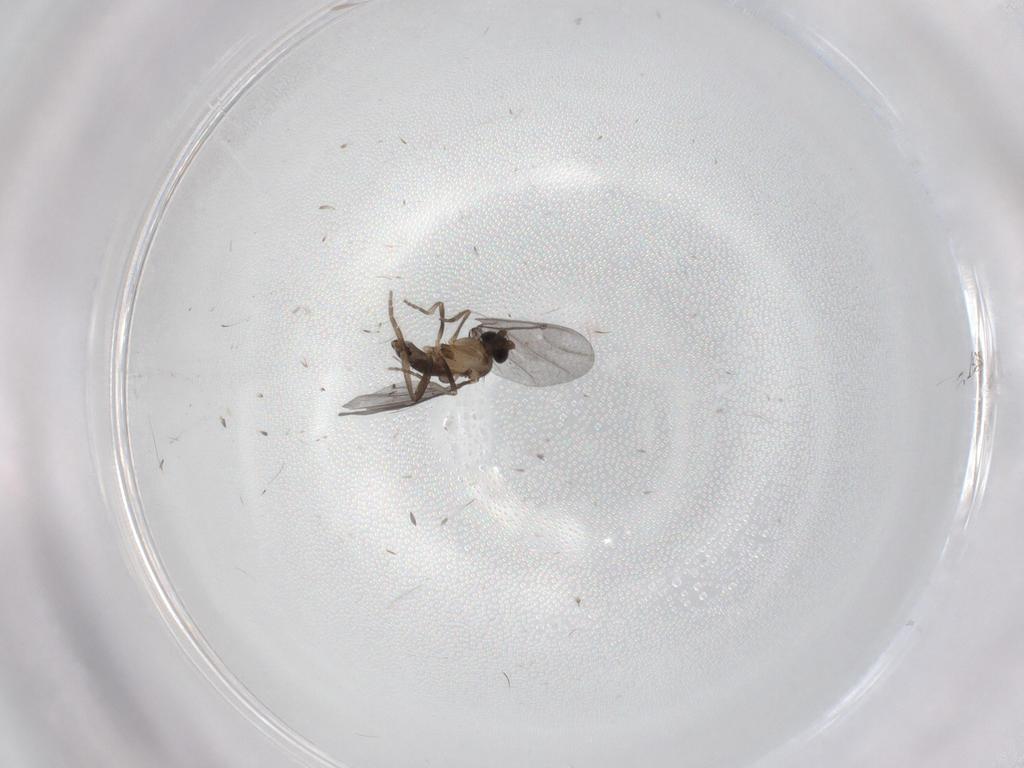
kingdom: Animalia
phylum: Arthropoda
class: Insecta
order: Diptera
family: Phoridae
